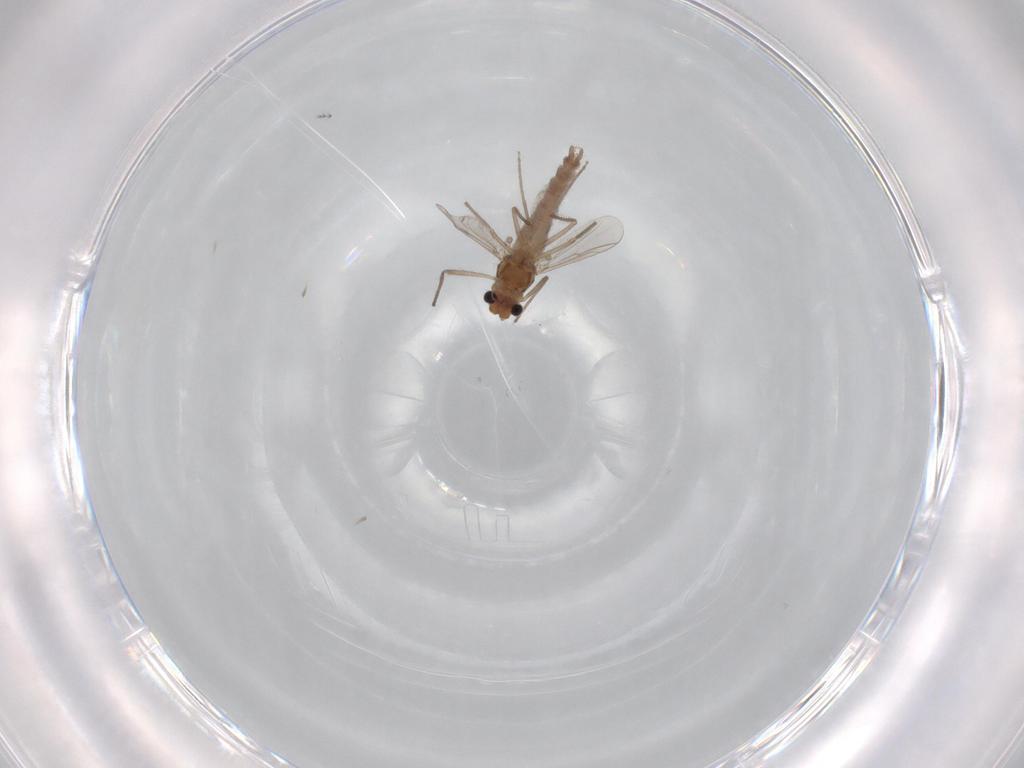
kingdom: Animalia
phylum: Arthropoda
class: Insecta
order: Diptera
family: Chironomidae
